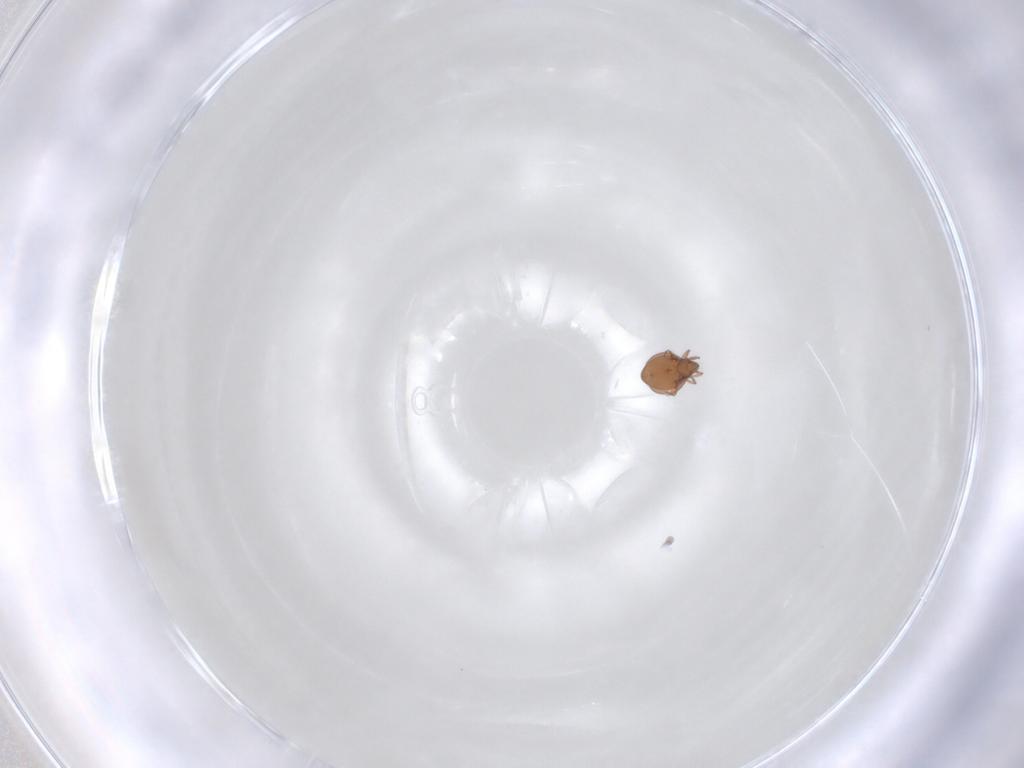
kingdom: Animalia
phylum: Arthropoda
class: Arachnida
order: Sarcoptiformes
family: Oribatulidae
